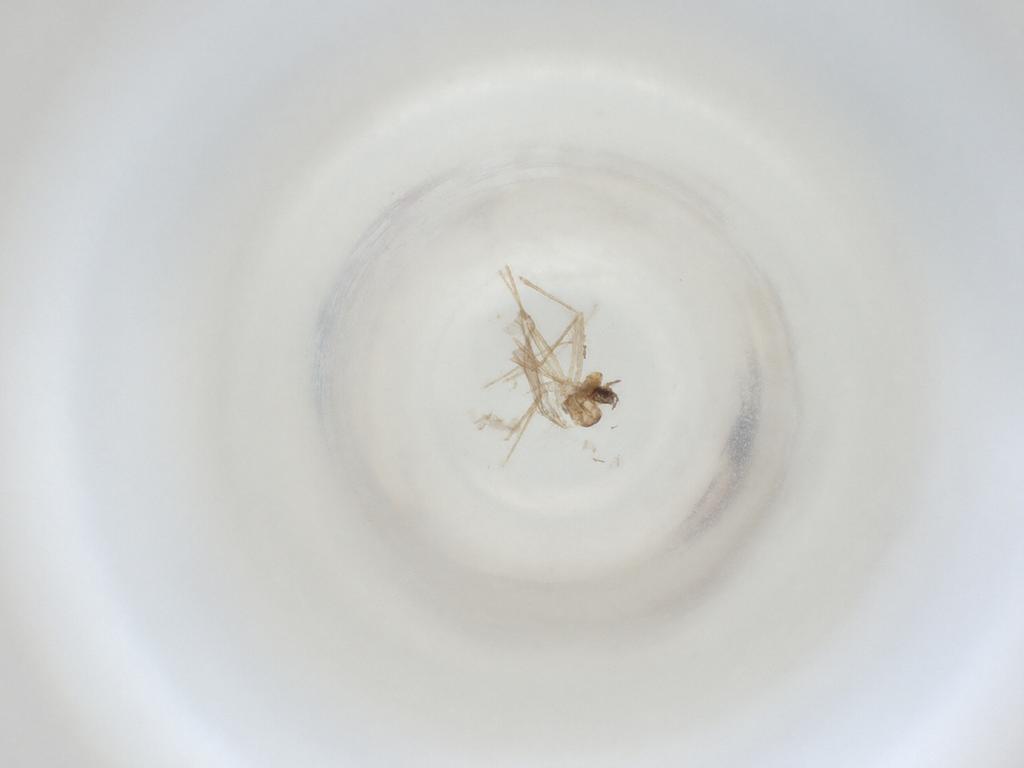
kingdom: Animalia
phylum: Arthropoda
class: Insecta
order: Diptera
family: Cecidomyiidae
